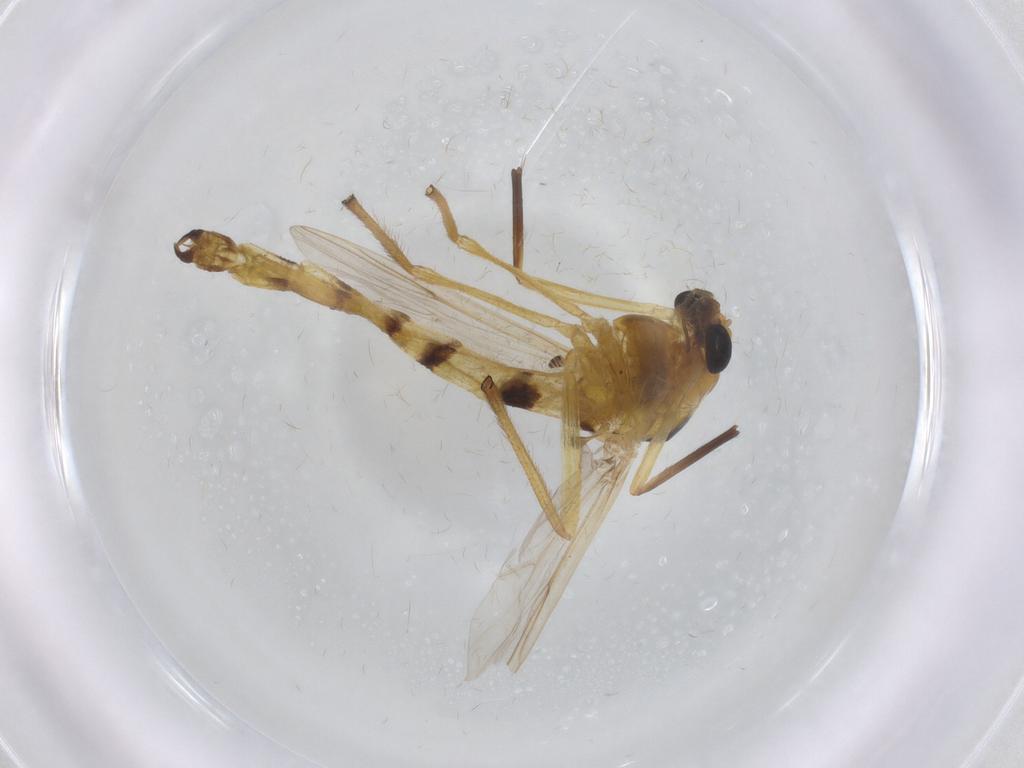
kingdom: Animalia
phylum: Arthropoda
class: Insecta
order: Diptera
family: Chironomidae
